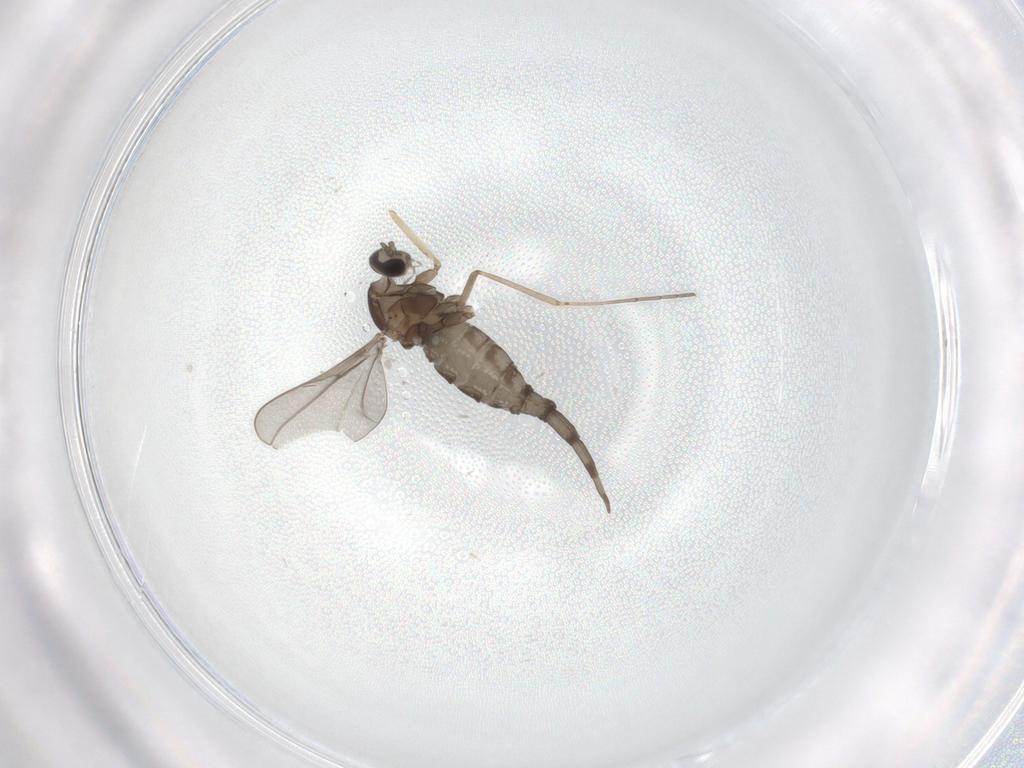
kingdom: Animalia
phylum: Arthropoda
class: Insecta
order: Diptera
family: Cecidomyiidae
